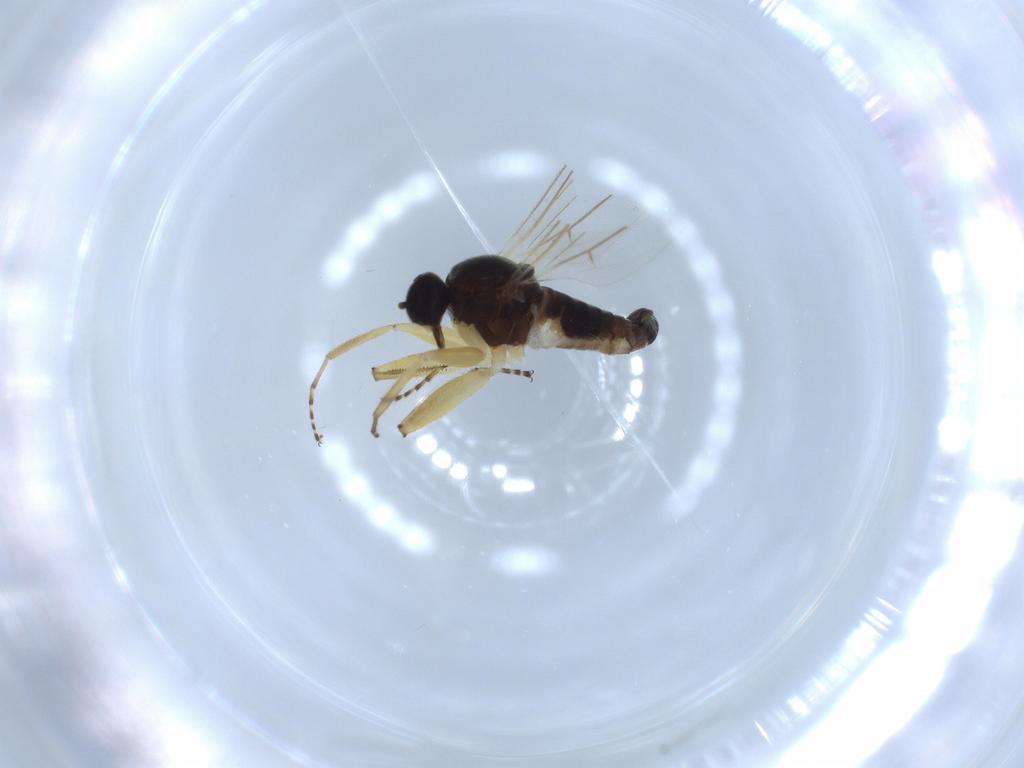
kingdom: Animalia
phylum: Arthropoda
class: Insecta
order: Diptera
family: Hybotidae
